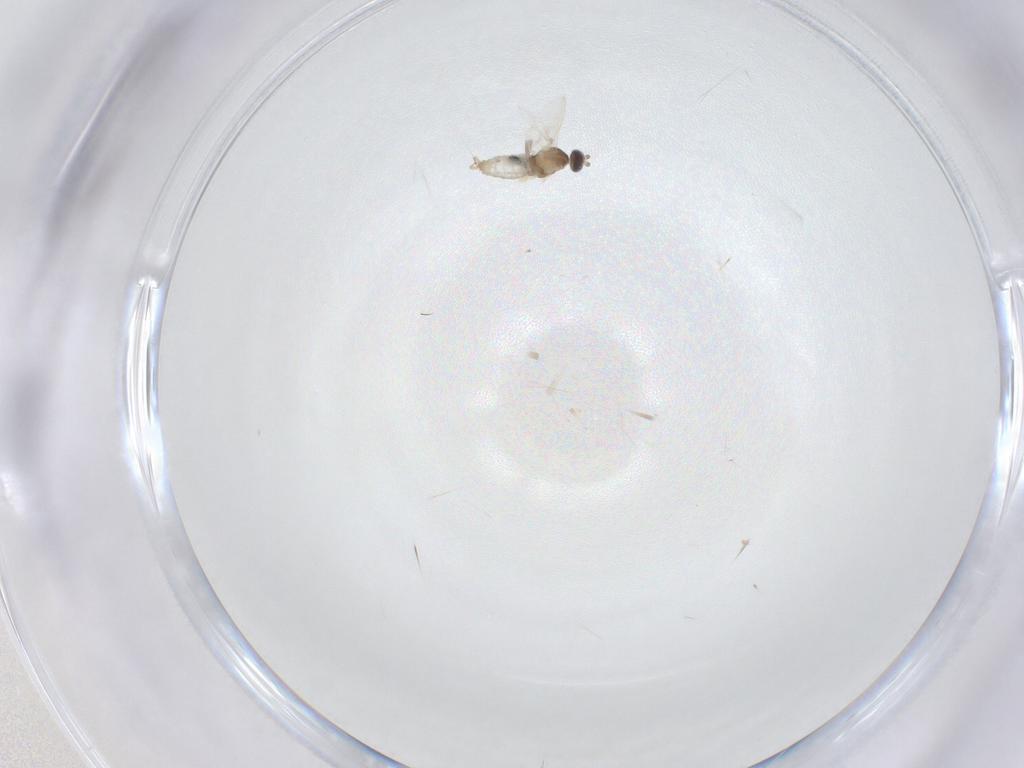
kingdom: Animalia
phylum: Arthropoda
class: Insecta
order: Diptera
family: Cecidomyiidae
